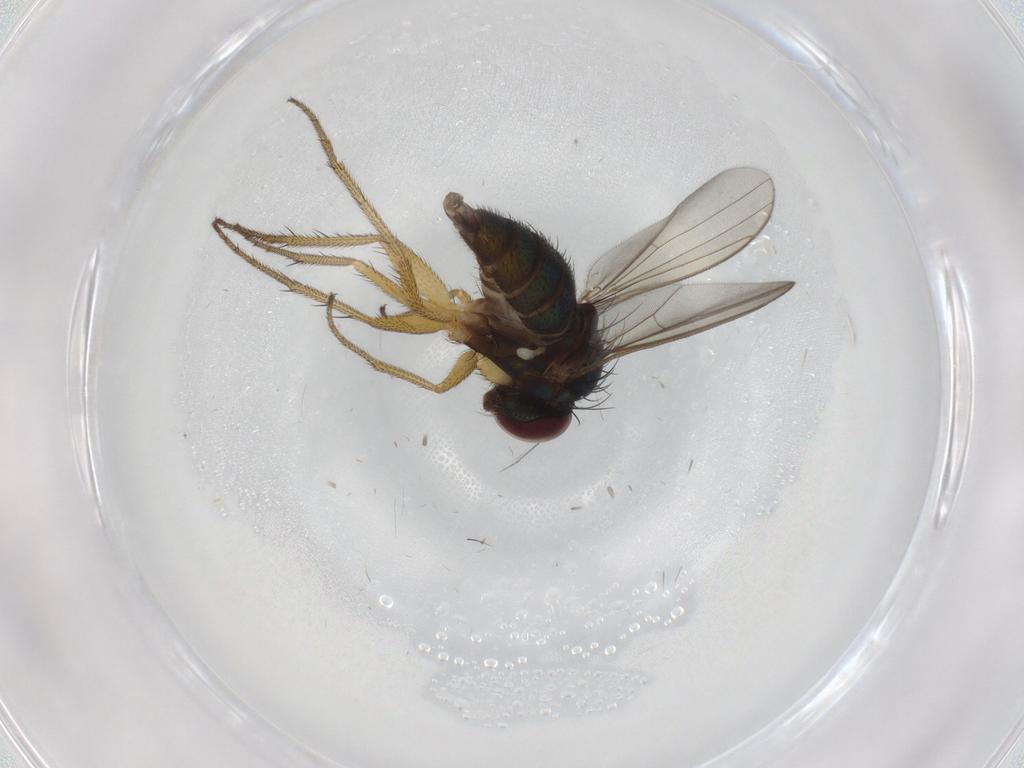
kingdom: Animalia
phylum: Arthropoda
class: Insecta
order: Diptera
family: Dolichopodidae
